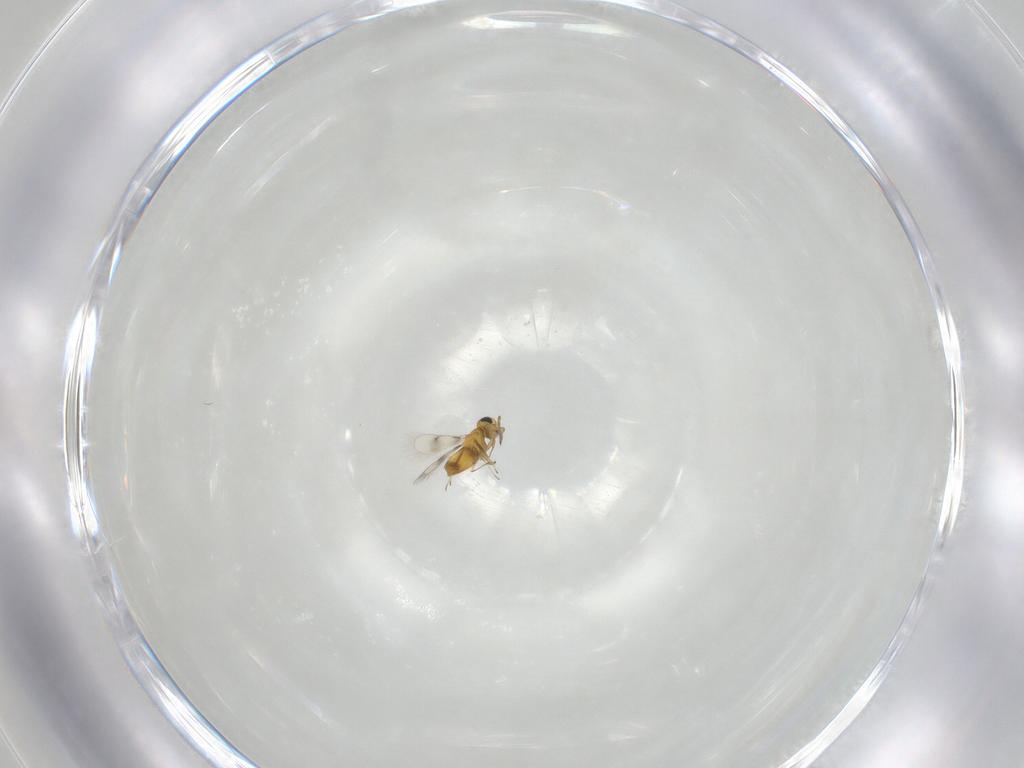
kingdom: Animalia
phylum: Arthropoda
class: Insecta
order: Hymenoptera
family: Aphelinidae
